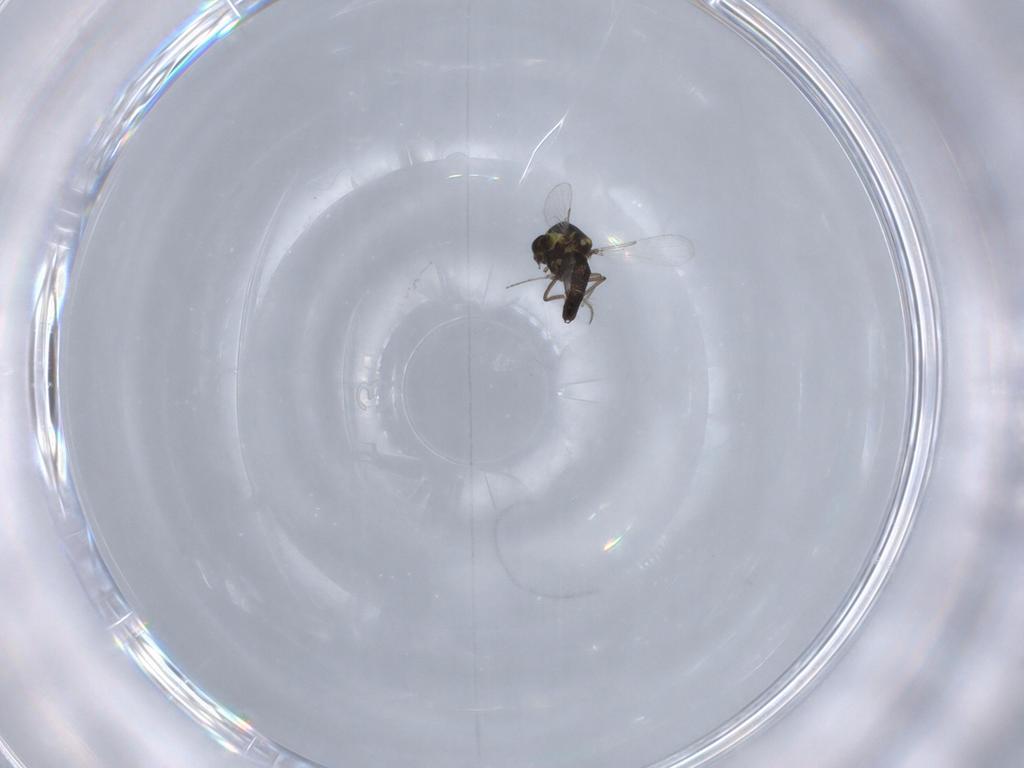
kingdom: Animalia
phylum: Arthropoda
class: Insecta
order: Diptera
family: Ceratopogonidae
